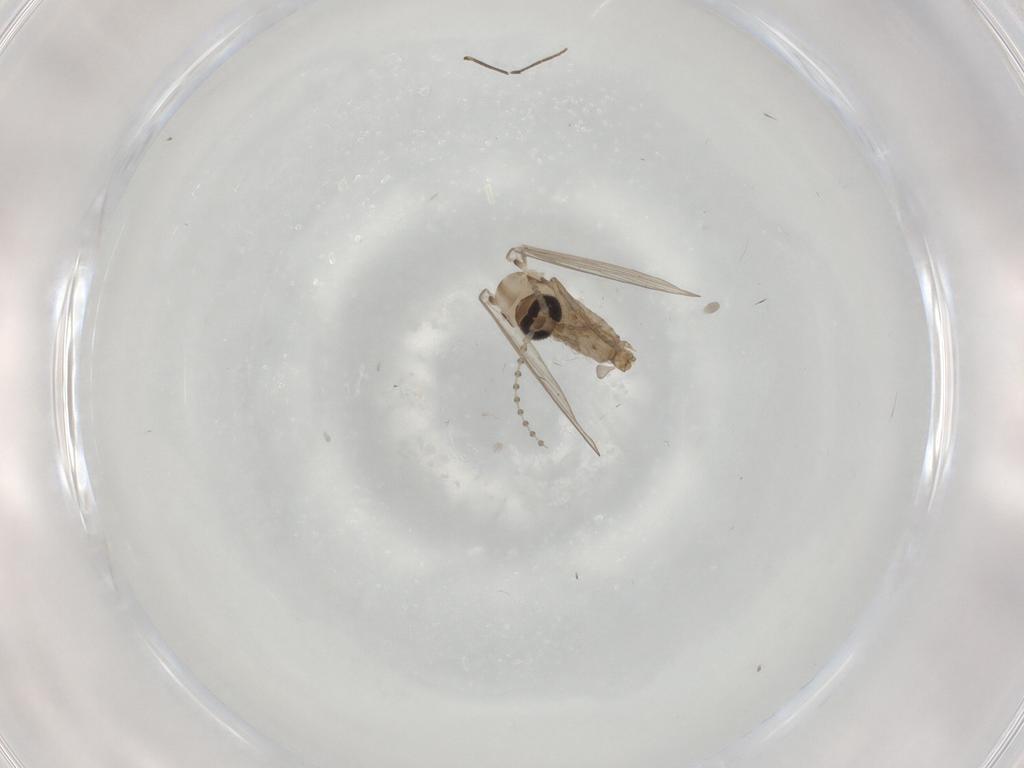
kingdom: Animalia
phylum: Arthropoda
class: Insecta
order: Diptera
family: Psychodidae
